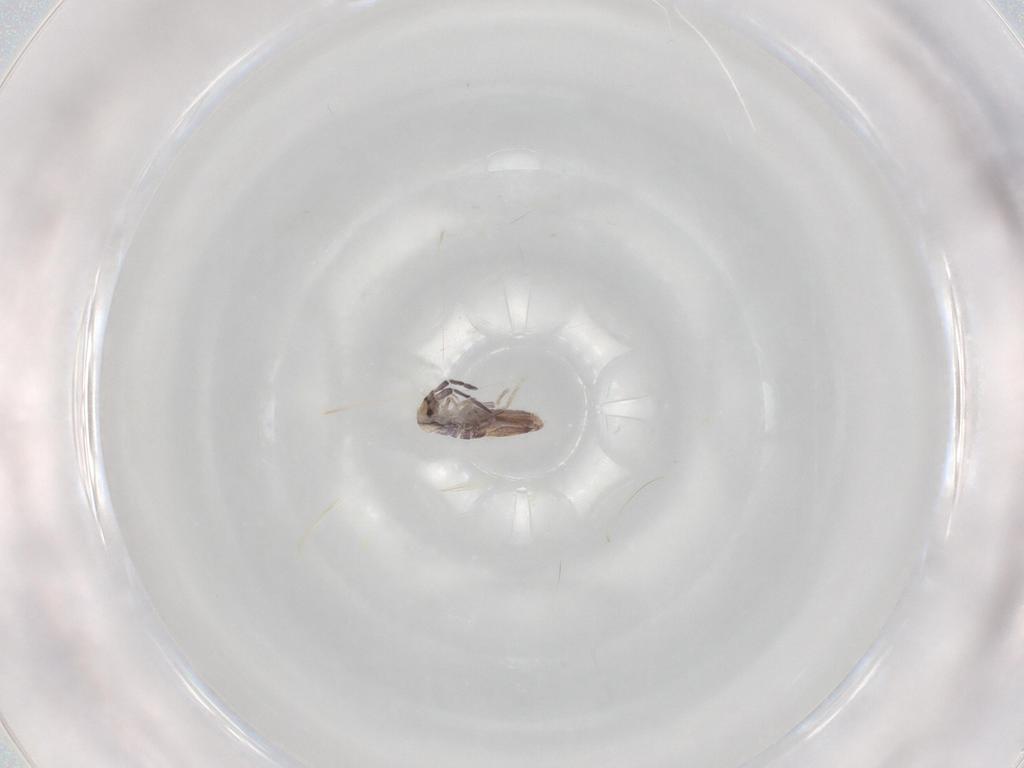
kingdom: Animalia
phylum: Arthropoda
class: Collembola
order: Poduromorpha
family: Hypogastruridae
